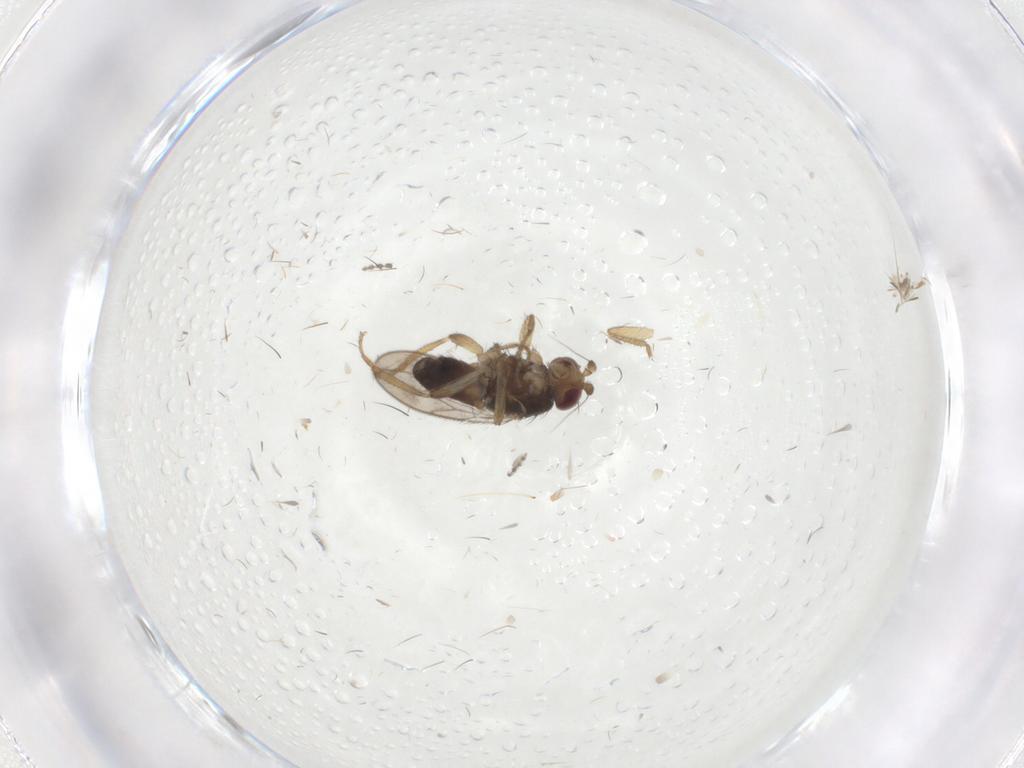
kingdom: Animalia
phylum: Arthropoda
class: Insecta
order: Diptera
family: Sphaeroceridae
